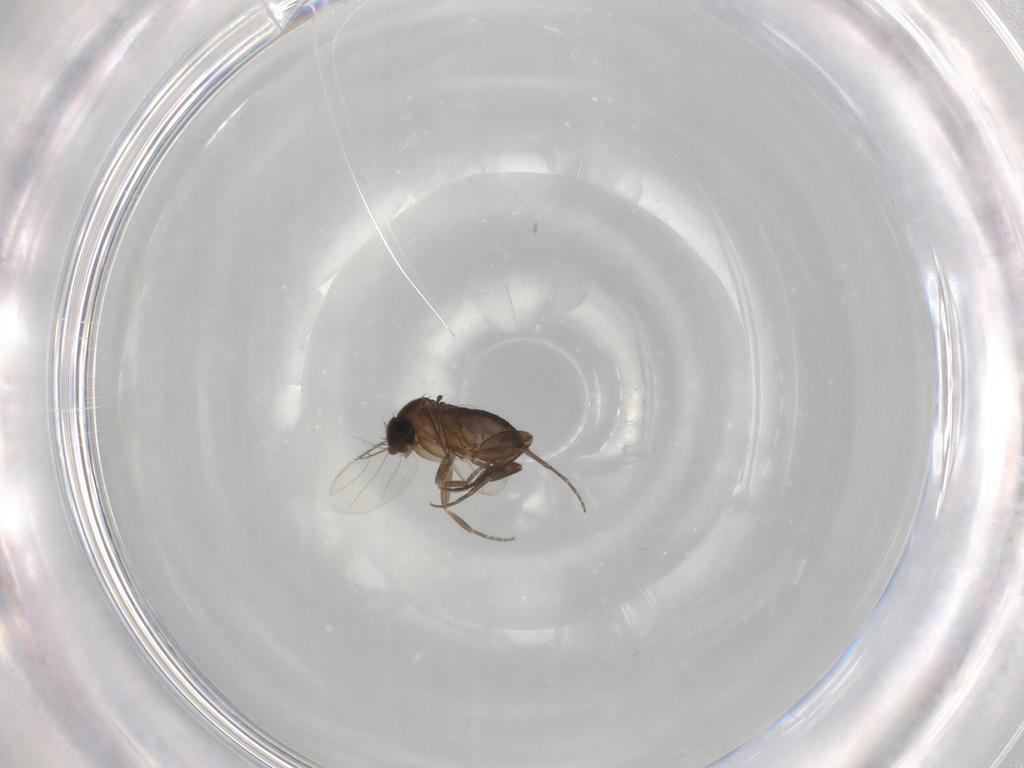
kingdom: Animalia
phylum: Arthropoda
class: Insecta
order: Diptera
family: Phoridae
